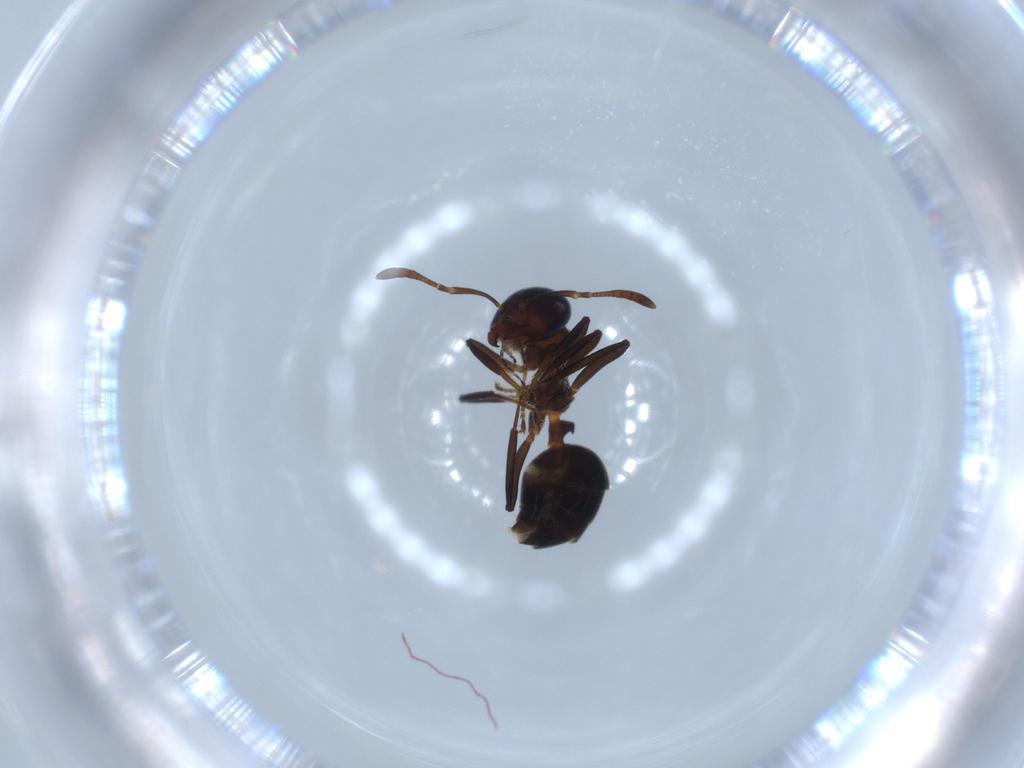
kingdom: Animalia
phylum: Arthropoda
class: Insecta
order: Hymenoptera
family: Formicidae
